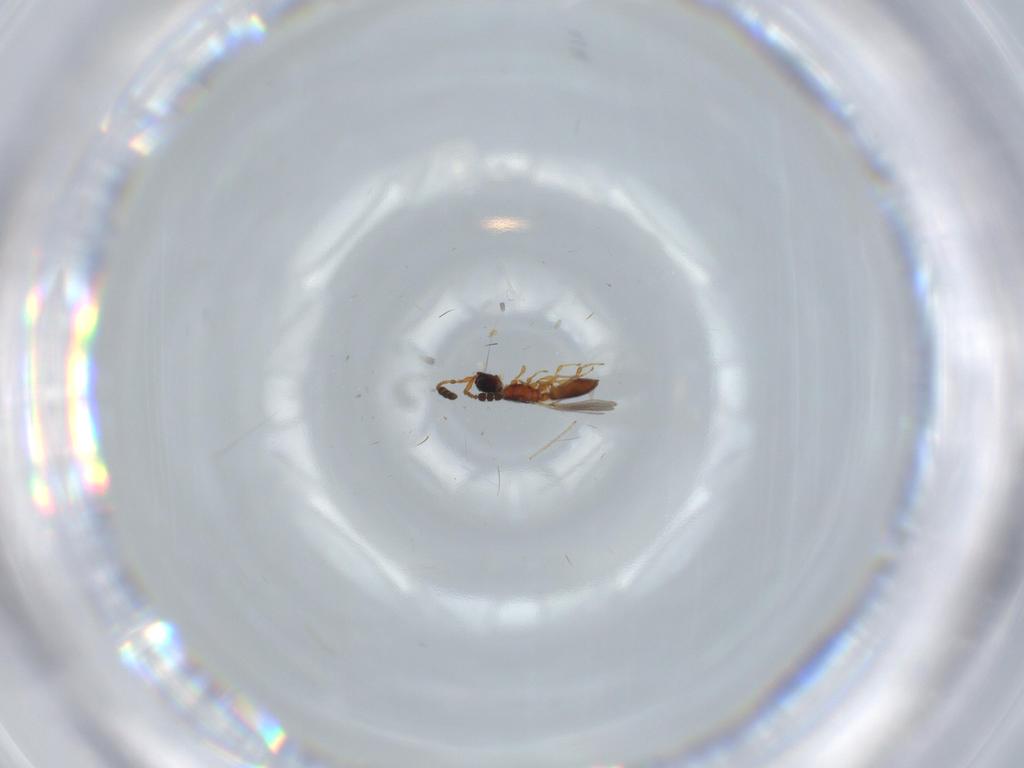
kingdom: Animalia
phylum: Arthropoda
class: Insecta
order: Hymenoptera
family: Diapriidae
